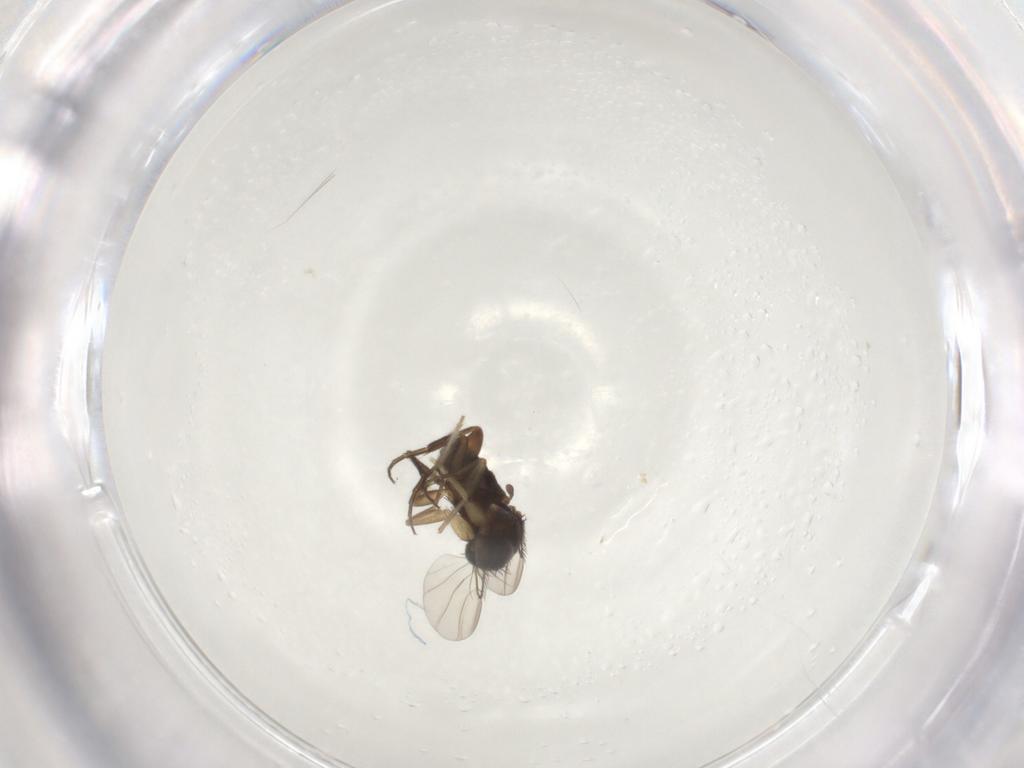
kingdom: Animalia
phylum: Arthropoda
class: Insecta
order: Diptera
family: Phoridae
